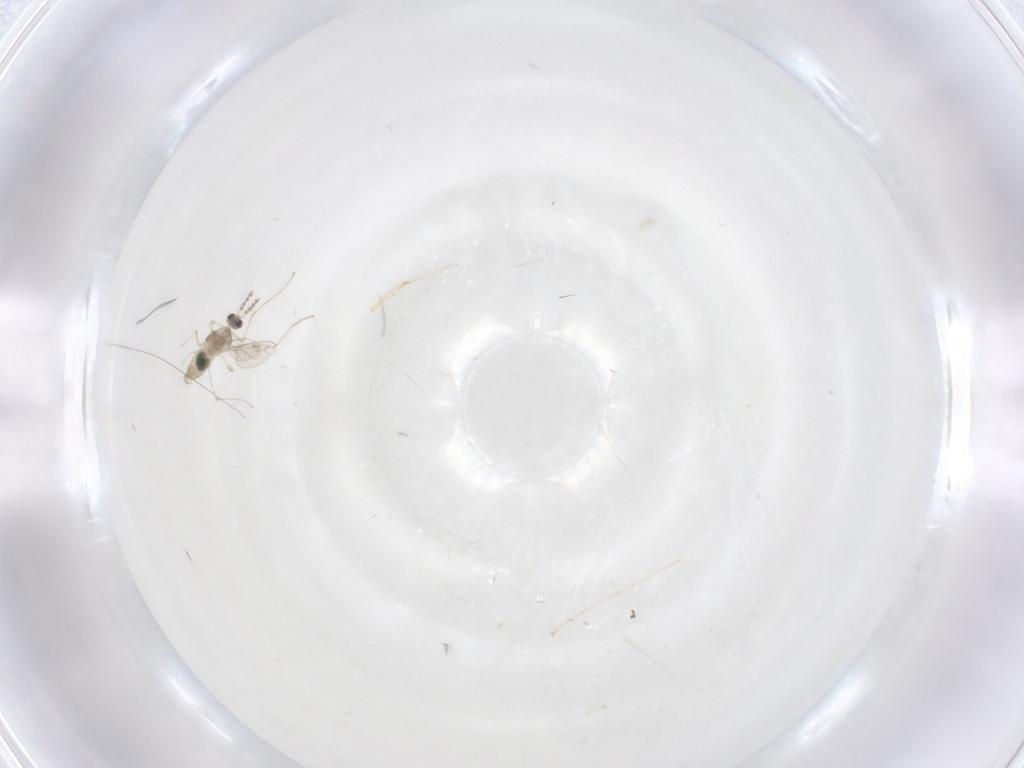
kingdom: Animalia
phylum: Arthropoda
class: Insecta
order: Diptera
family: Cecidomyiidae
